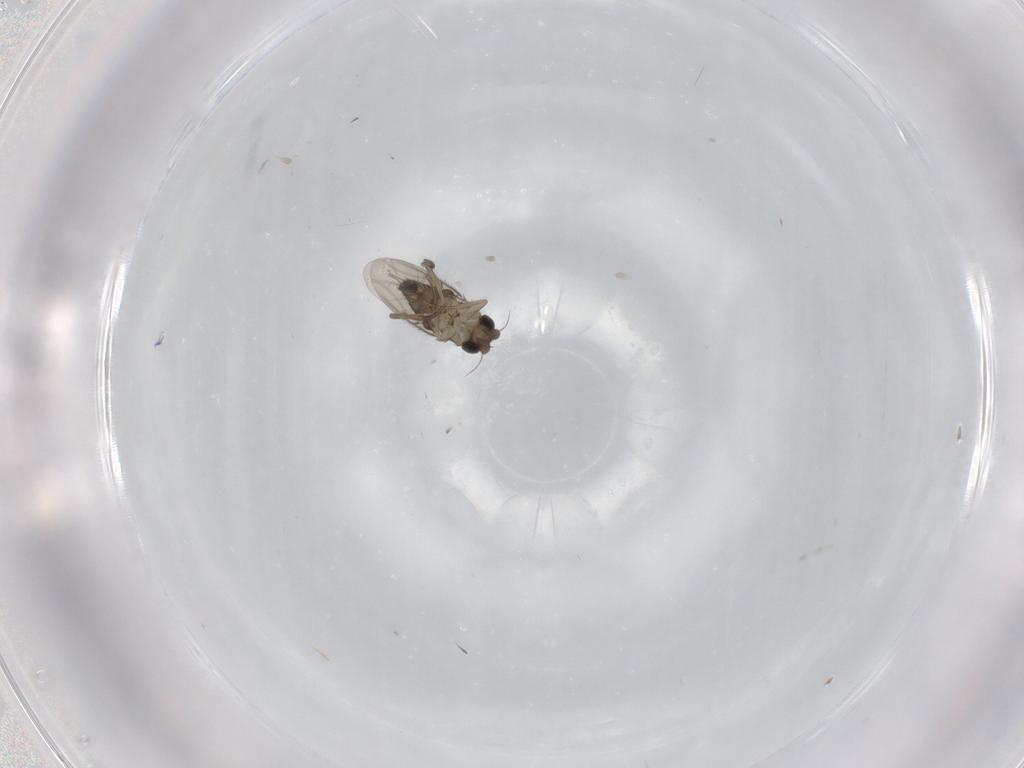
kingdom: Animalia
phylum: Arthropoda
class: Insecta
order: Diptera
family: Phoridae
